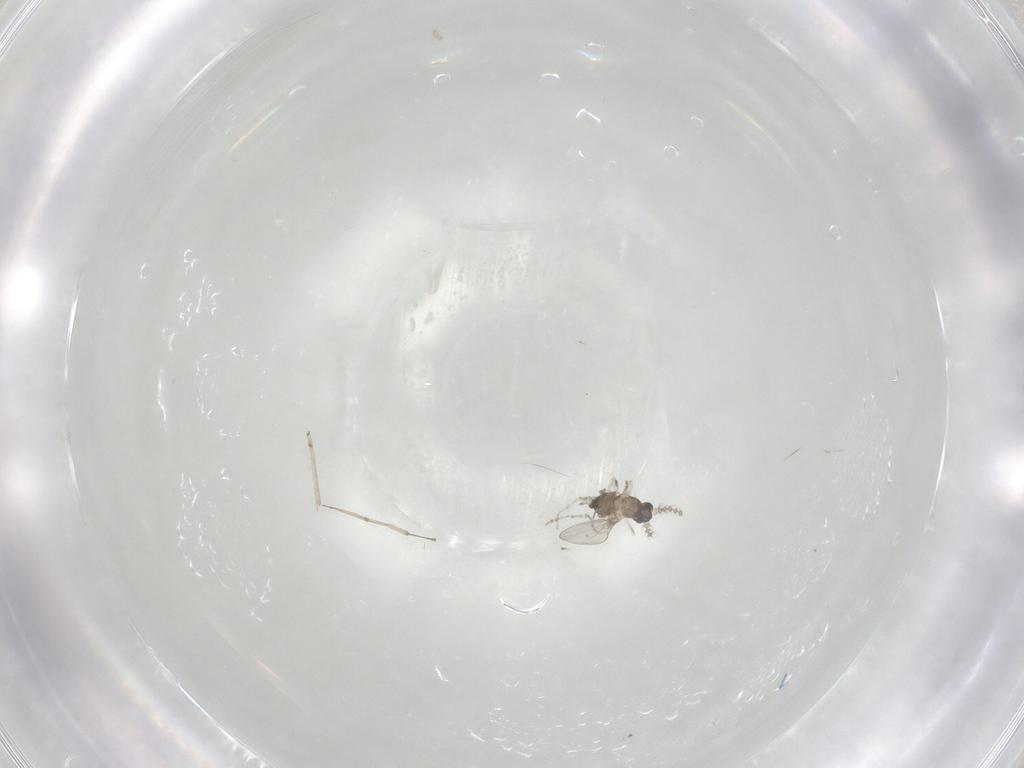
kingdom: Animalia
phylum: Arthropoda
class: Insecta
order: Diptera
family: Cecidomyiidae
